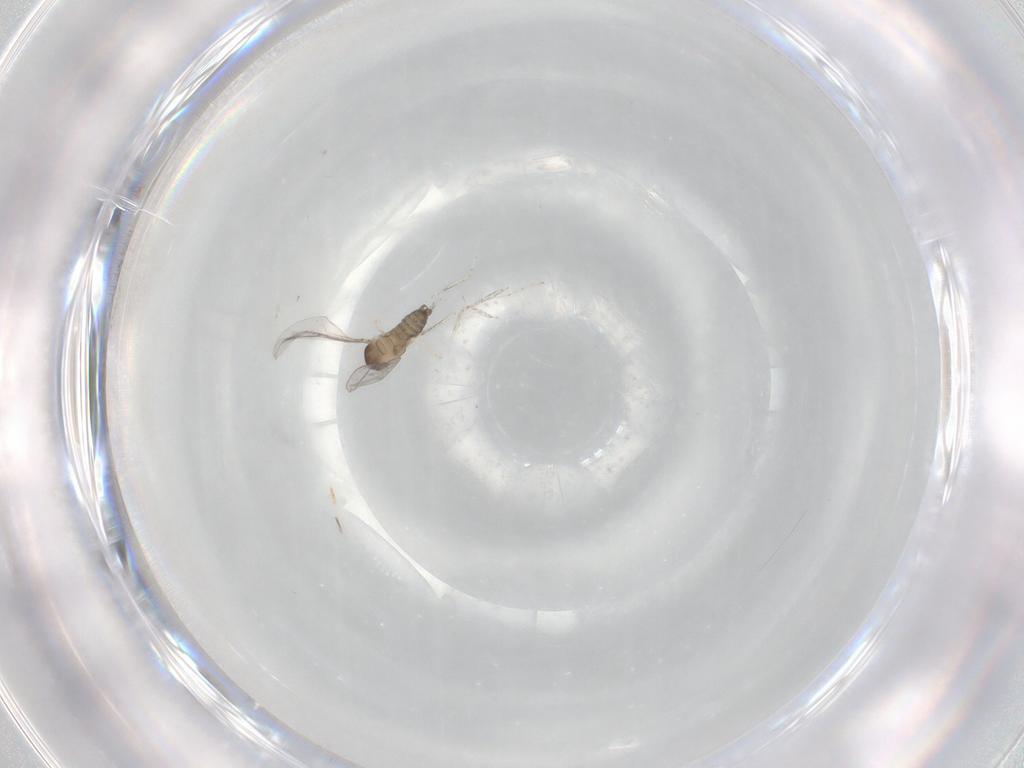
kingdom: Animalia
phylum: Arthropoda
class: Insecta
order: Diptera
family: Cecidomyiidae
